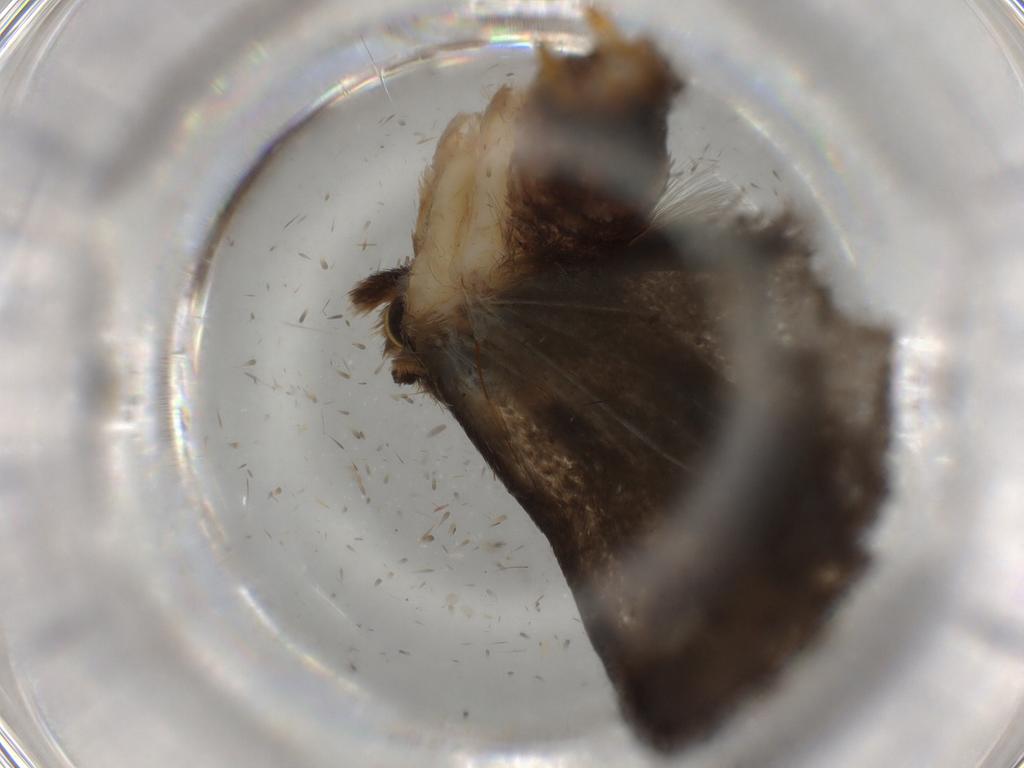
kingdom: Animalia
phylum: Arthropoda
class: Insecta
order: Lepidoptera
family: Tineidae
